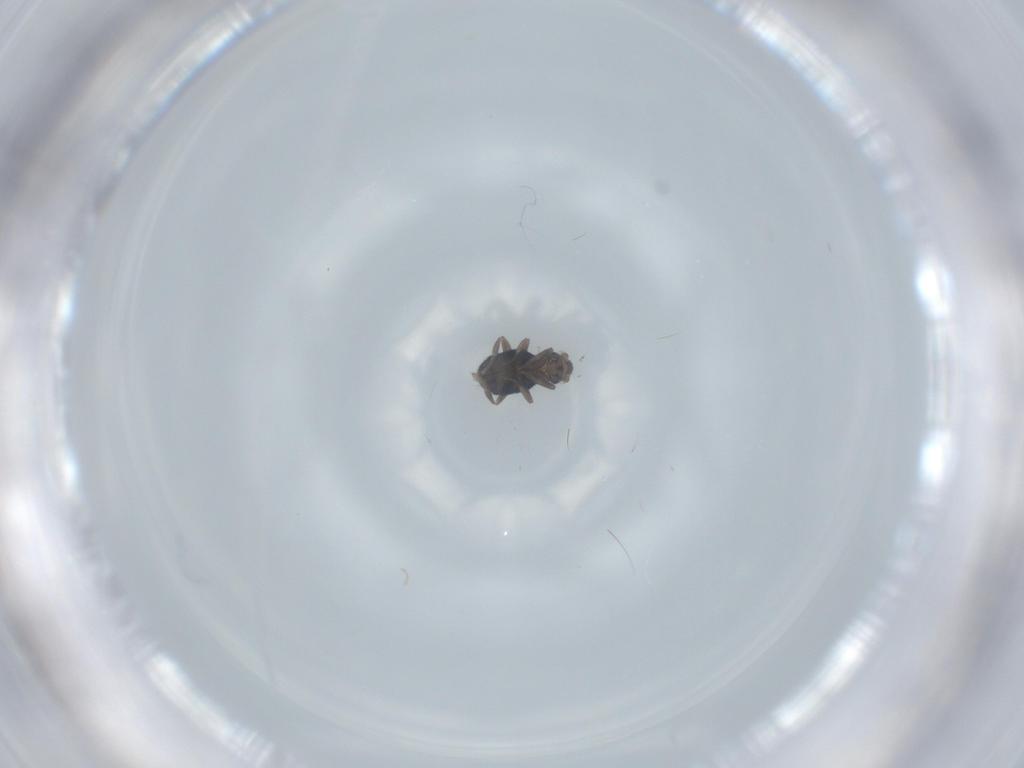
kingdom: Animalia
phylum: Arthropoda
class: Insecta
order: Diptera
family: Phoridae
